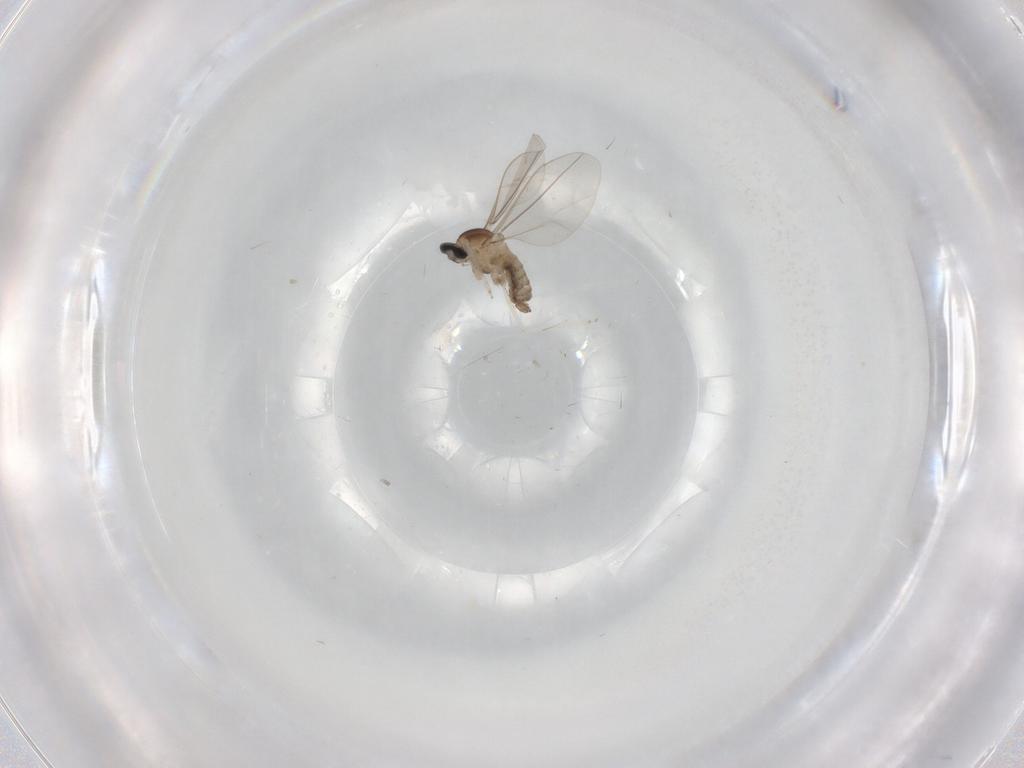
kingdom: Animalia
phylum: Arthropoda
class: Insecta
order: Diptera
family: Cecidomyiidae
